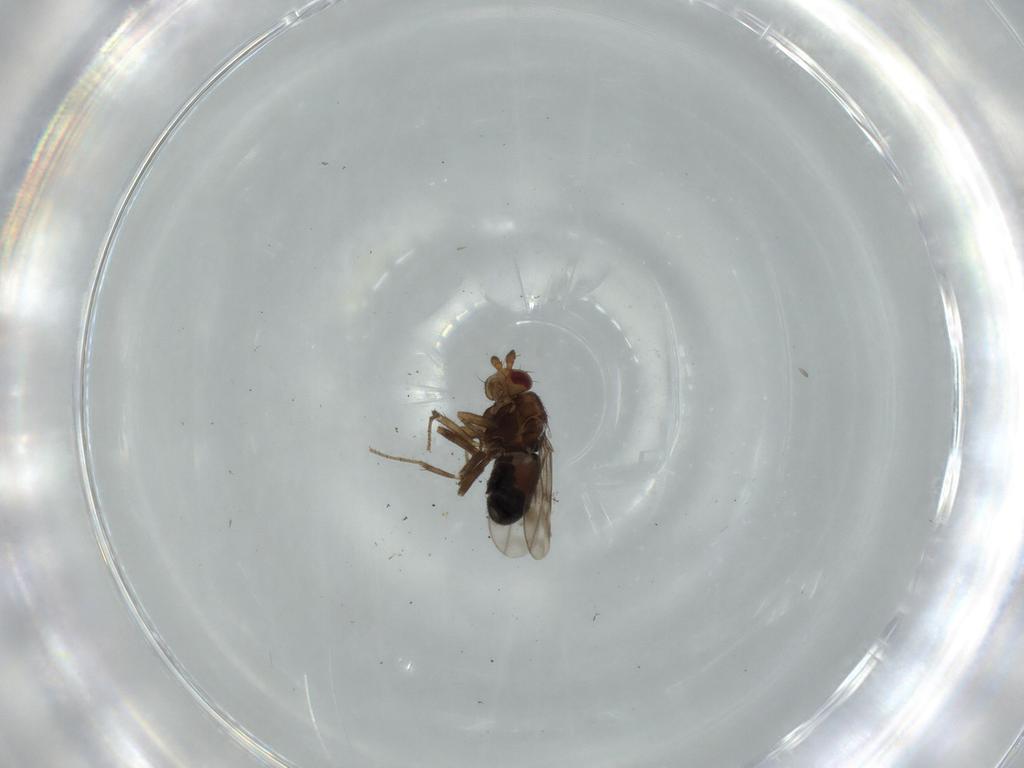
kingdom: Animalia
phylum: Arthropoda
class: Insecta
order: Diptera
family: Sphaeroceridae
